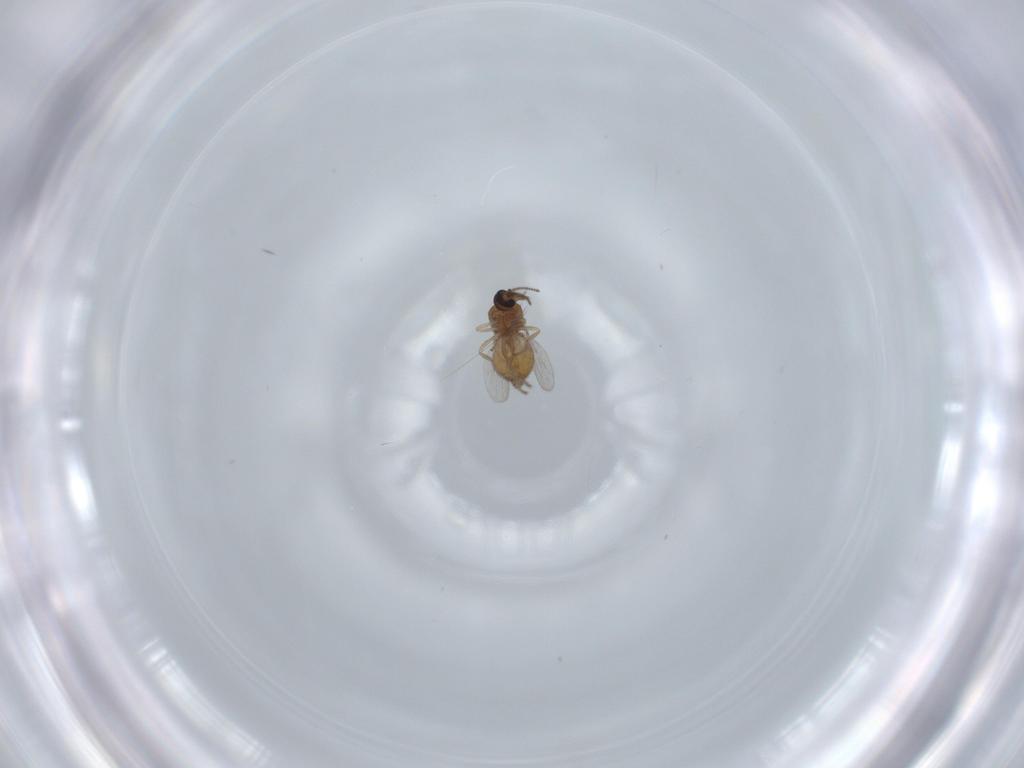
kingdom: Animalia
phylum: Arthropoda
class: Insecta
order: Diptera
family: Ceratopogonidae
